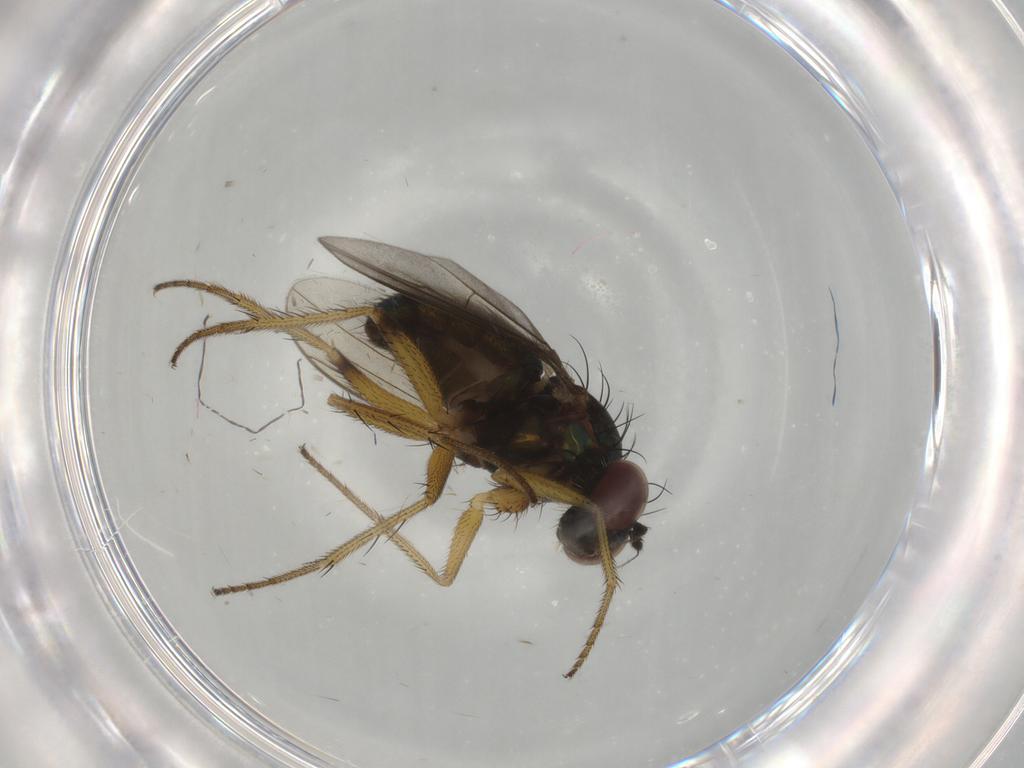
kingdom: Animalia
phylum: Arthropoda
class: Insecta
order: Diptera
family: Dolichopodidae
